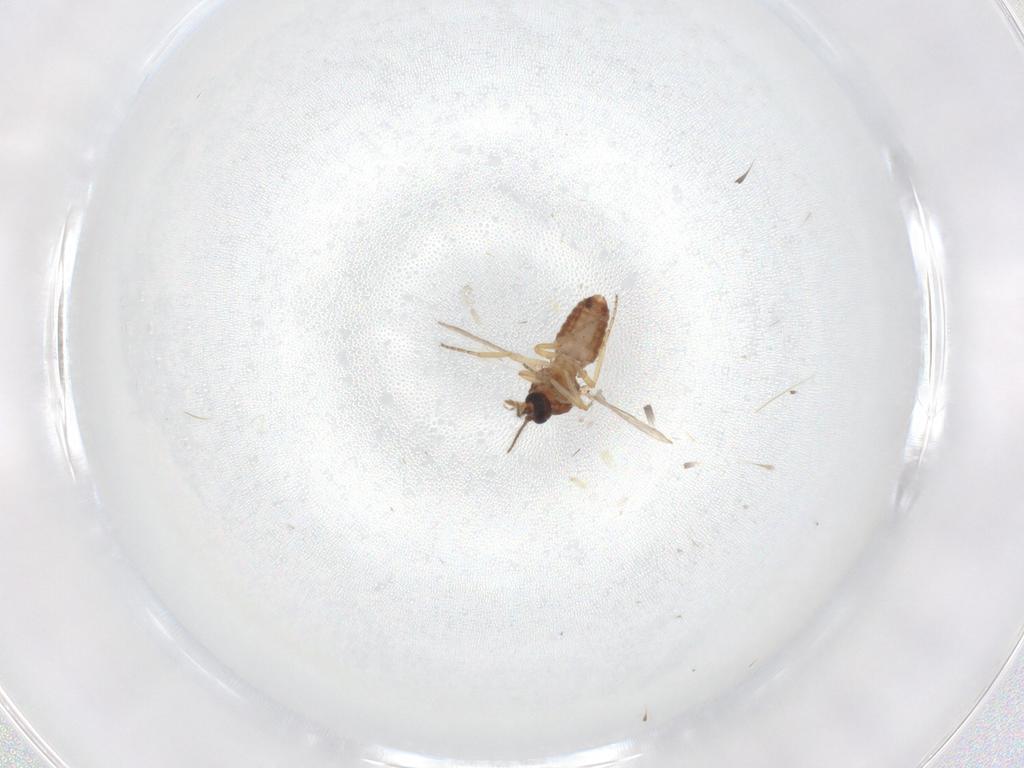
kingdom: Animalia
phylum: Arthropoda
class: Insecta
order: Diptera
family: Ceratopogonidae
